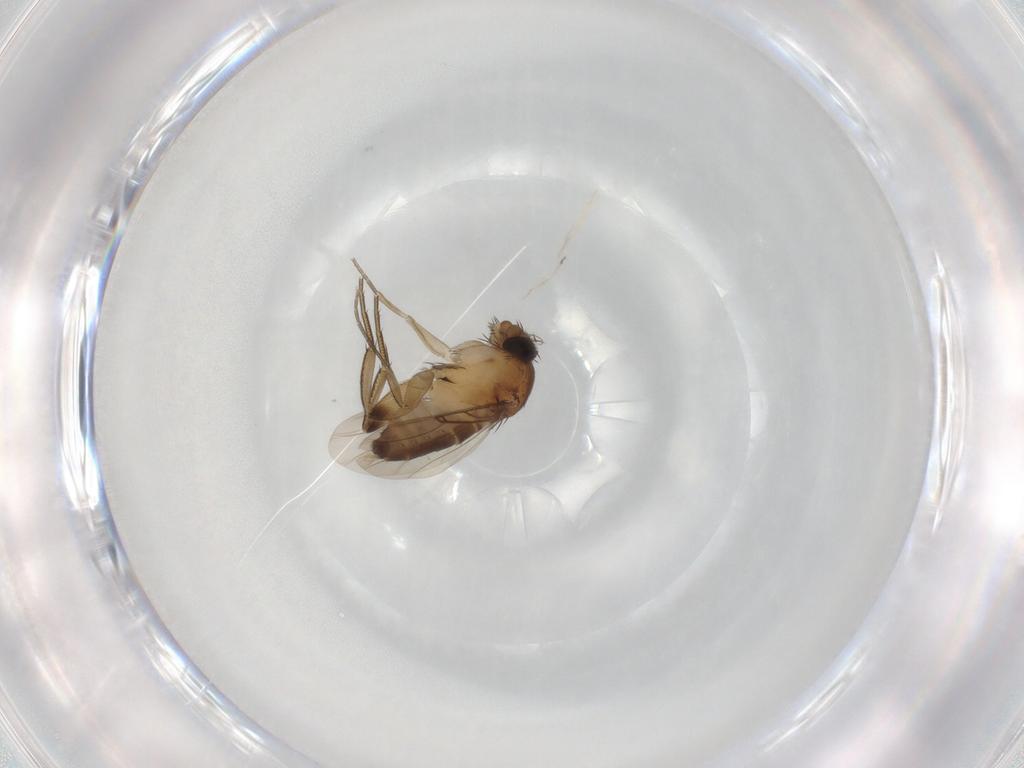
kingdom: Animalia
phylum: Arthropoda
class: Insecta
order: Diptera
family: Phoridae
